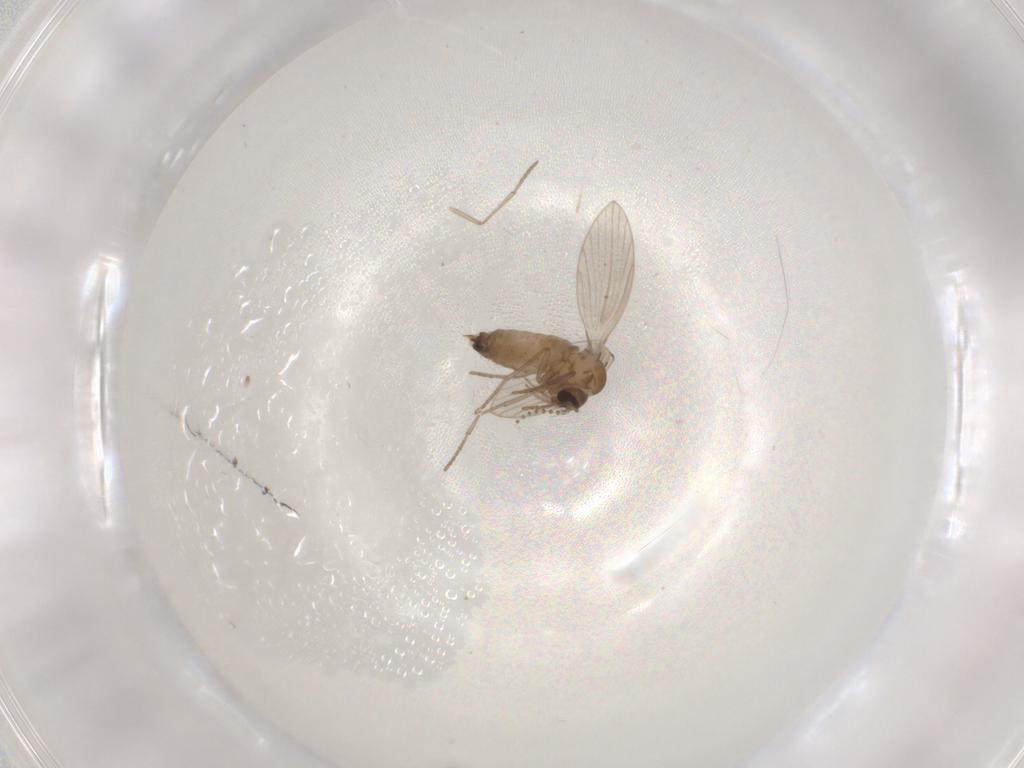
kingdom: Animalia
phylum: Arthropoda
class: Insecta
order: Diptera
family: Psychodidae
